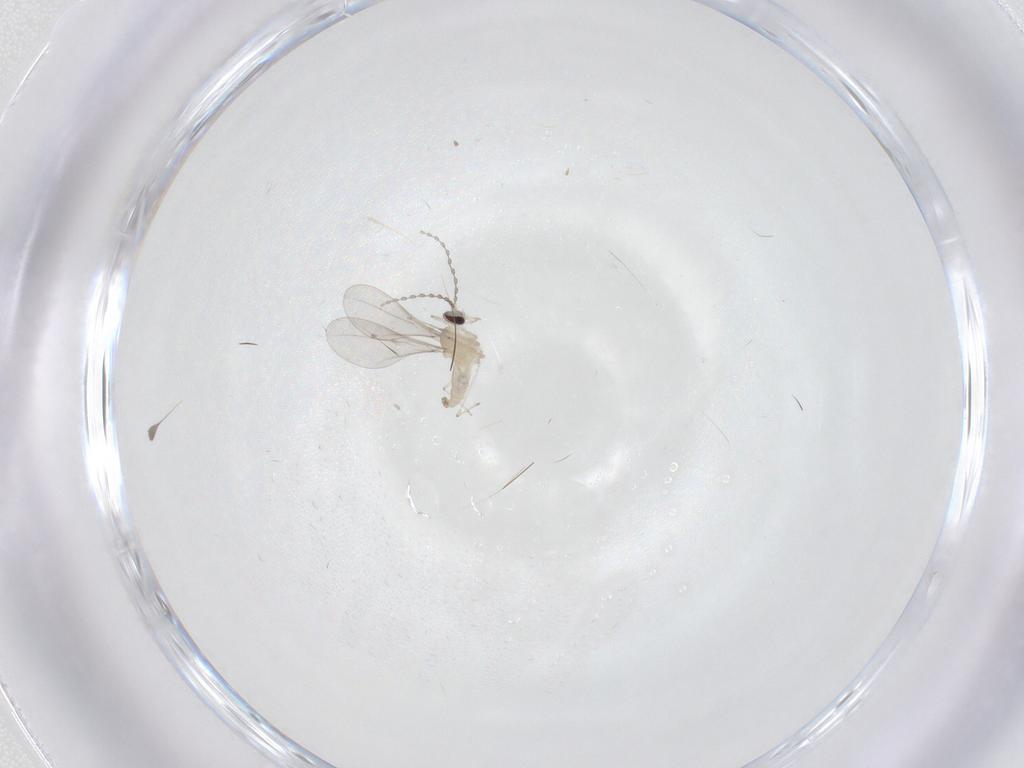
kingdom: Animalia
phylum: Arthropoda
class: Insecta
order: Diptera
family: Cecidomyiidae
